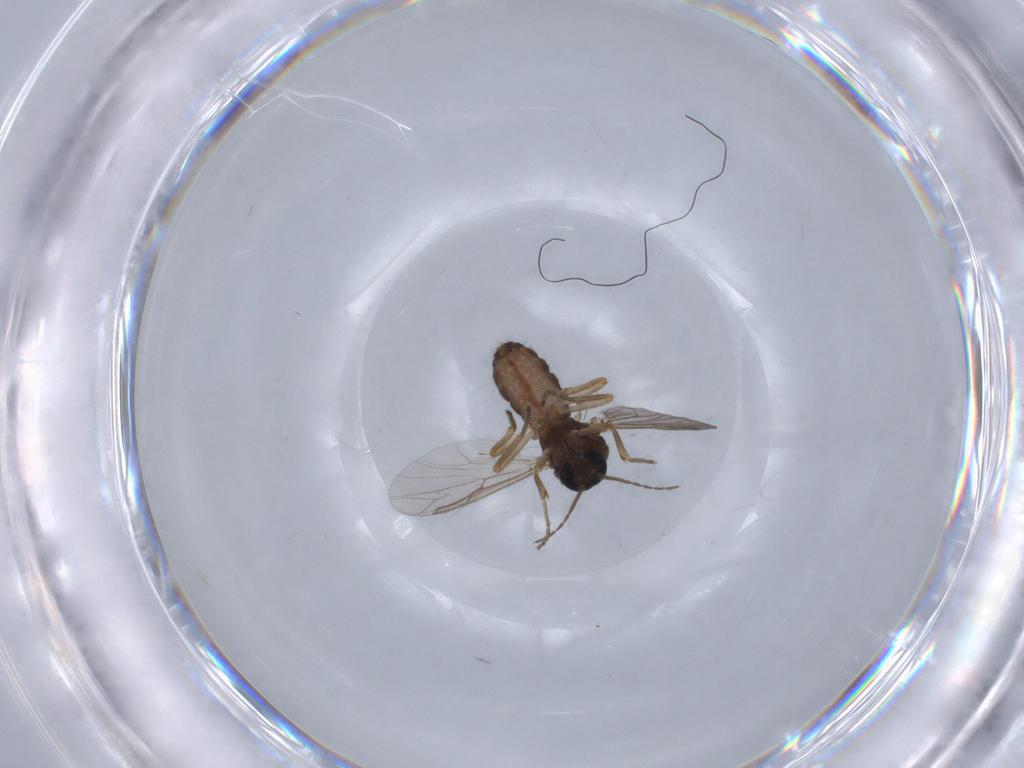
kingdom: Animalia
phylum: Arthropoda
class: Insecta
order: Diptera
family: Ceratopogonidae
